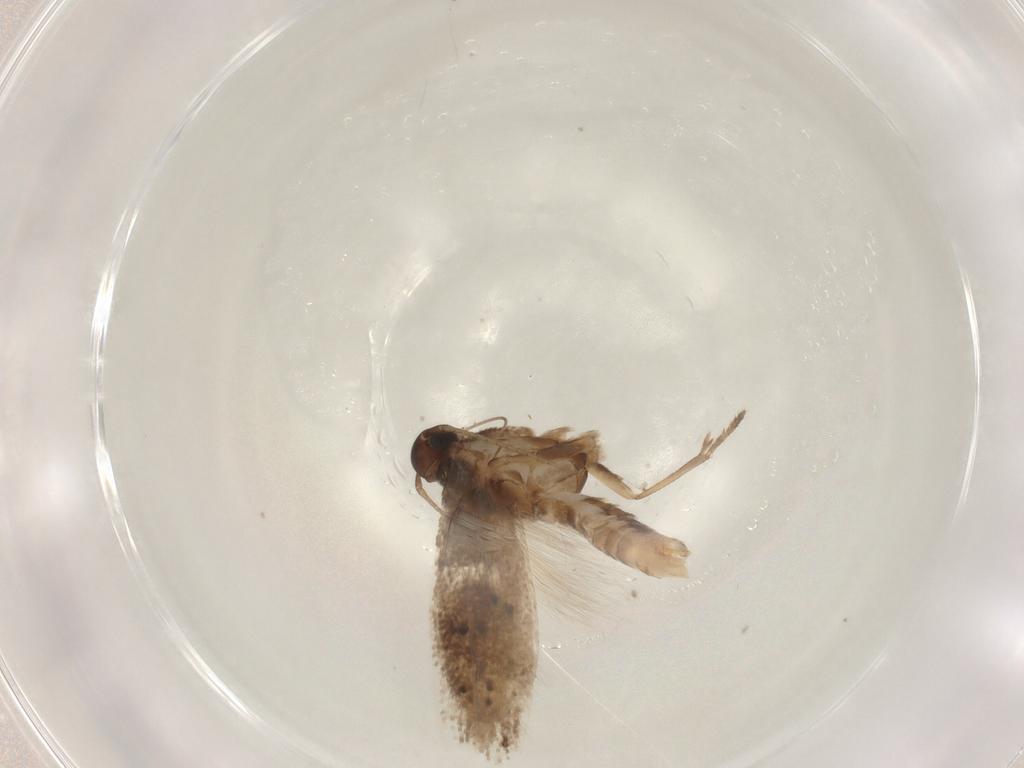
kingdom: Animalia
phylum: Arthropoda
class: Insecta
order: Lepidoptera
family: Gelechiidae
